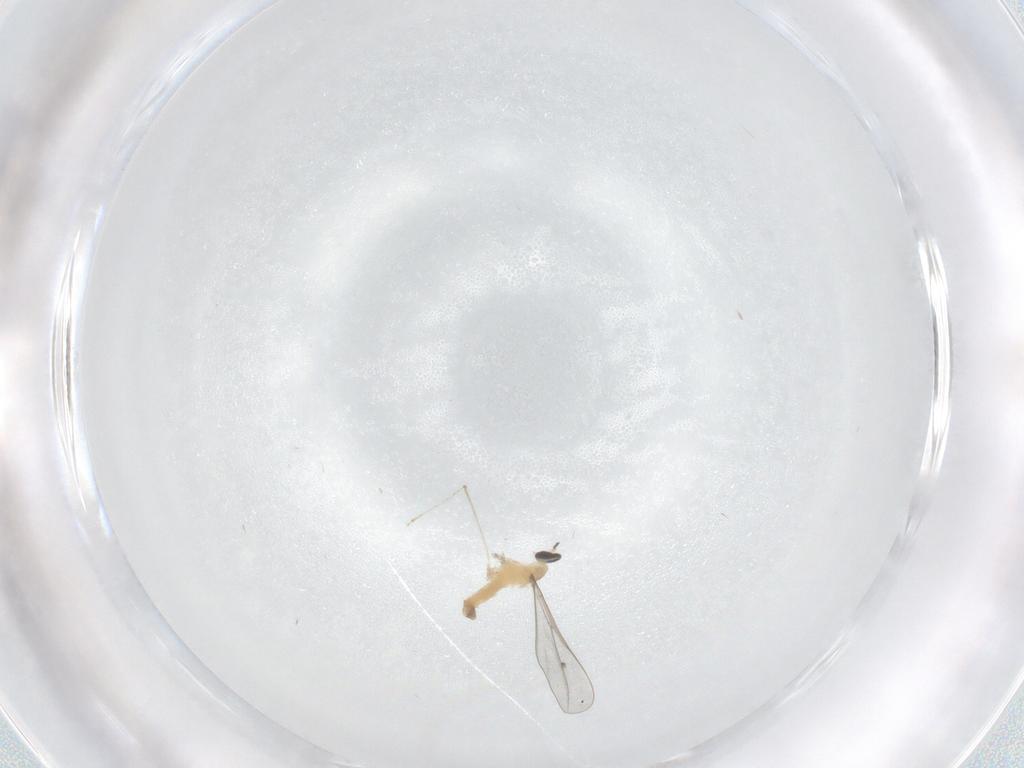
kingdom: Animalia
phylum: Arthropoda
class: Insecta
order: Diptera
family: Cecidomyiidae
